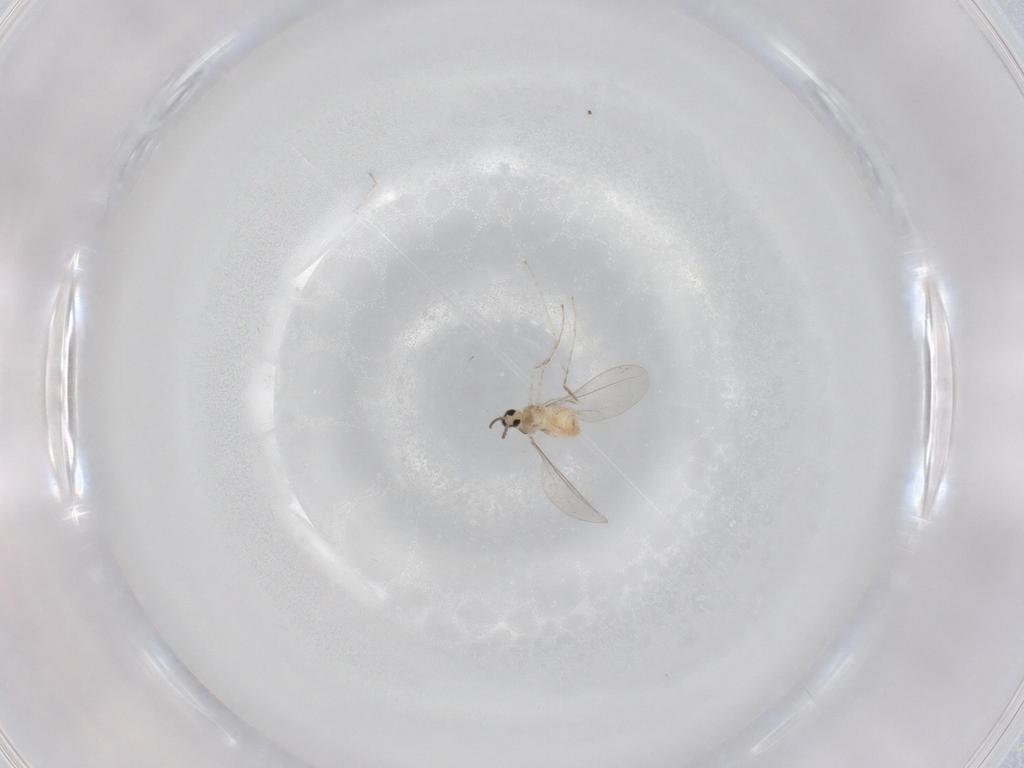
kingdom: Animalia
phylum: Arthropoda
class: Insecta
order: Diptera
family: Cecidomyiidae
